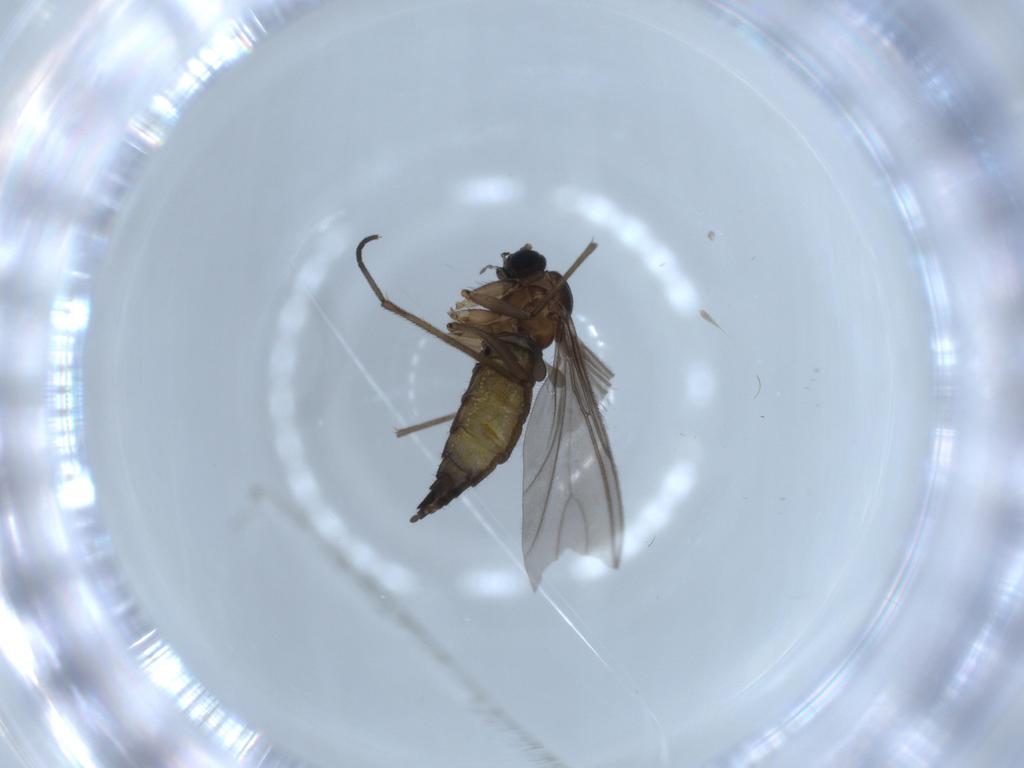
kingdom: Animalia
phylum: Arthropoda
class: Insecta
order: Diptera
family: Sciaridae
